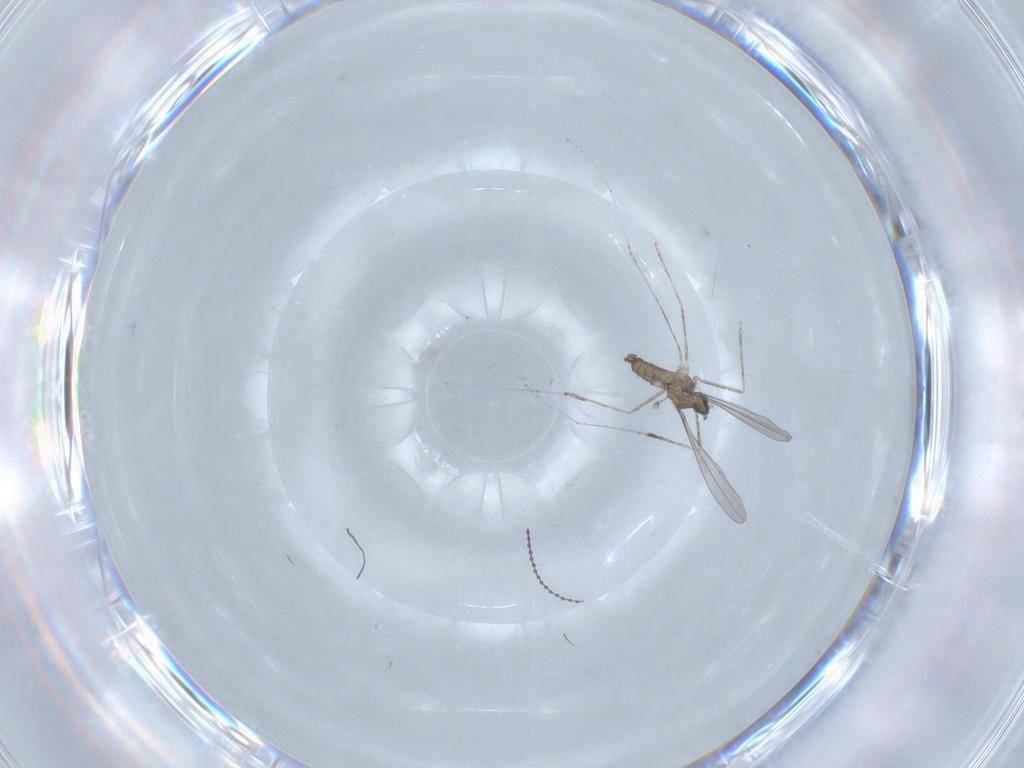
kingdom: Animalia
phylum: Arthropoda
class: Insecta
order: Diptera
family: Cecidomyiidae
